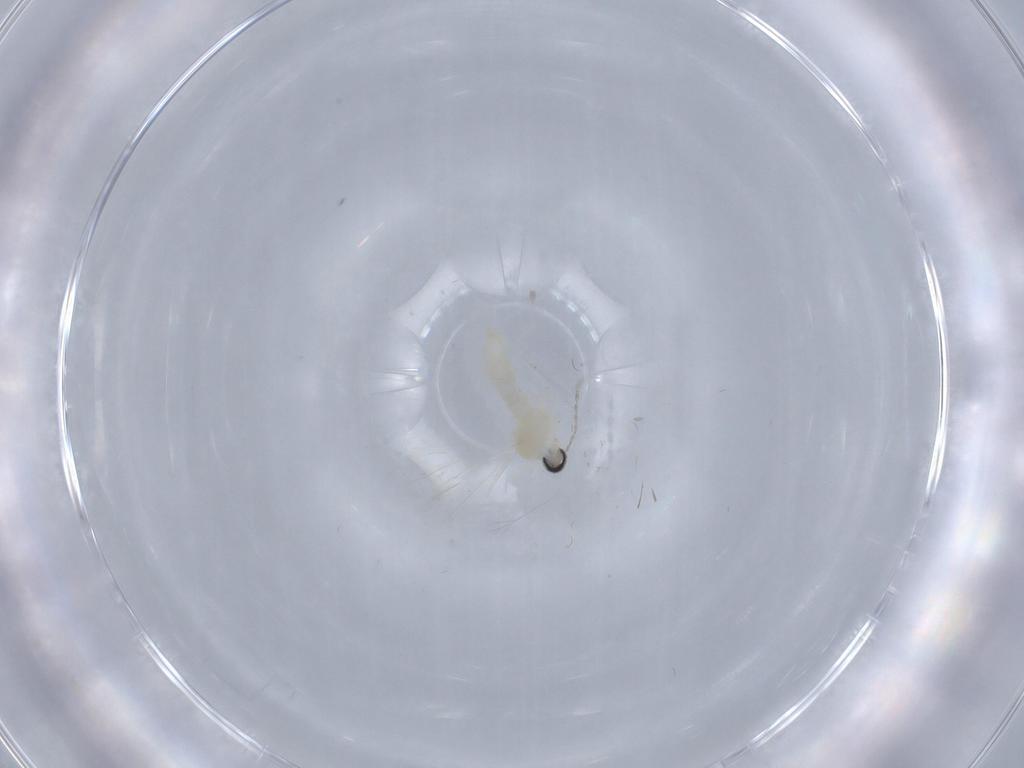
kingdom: Animalia
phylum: Arthropoda
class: Insecta
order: Diptera
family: Cecidomyiidae
